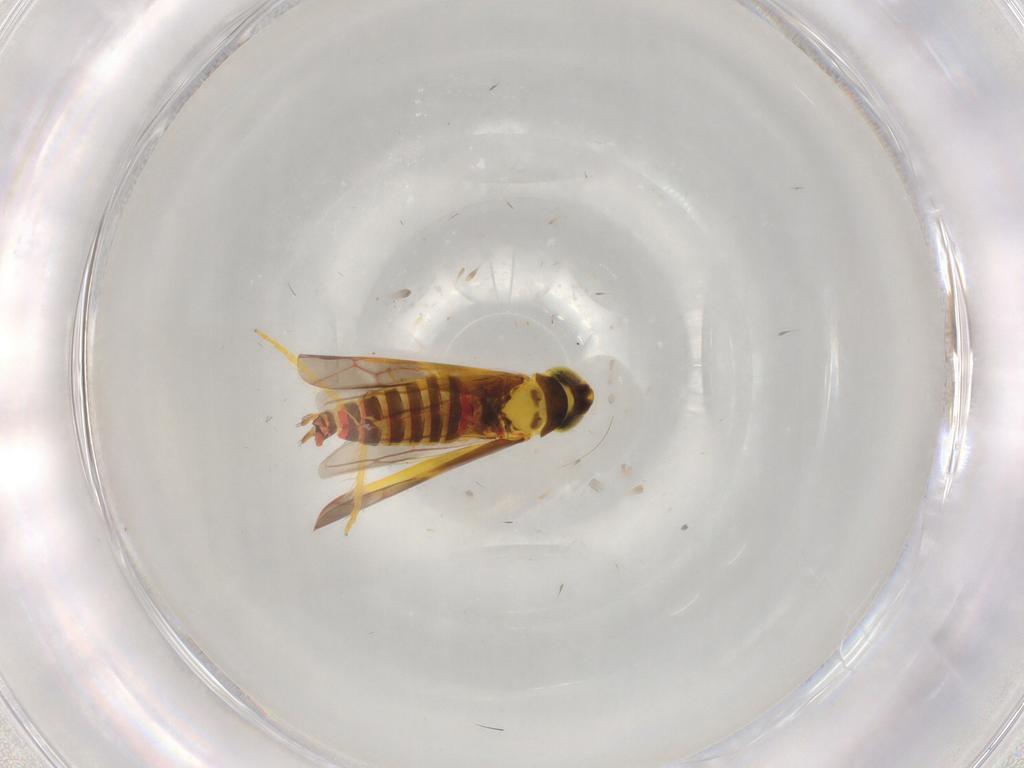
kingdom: Animalia
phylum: Arthropoda
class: Insecta
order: Hemiptera
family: Cicadellidae
